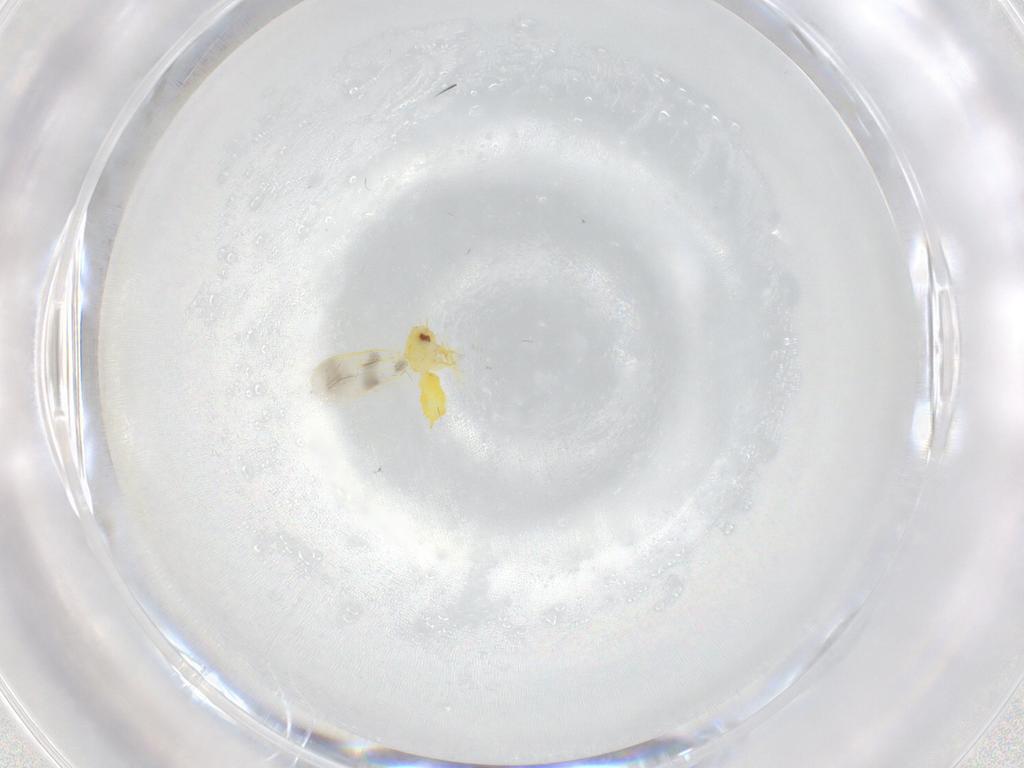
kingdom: Animalia
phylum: Arthropoda
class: Insecta
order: Hemiptera
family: Aleyrodidae
